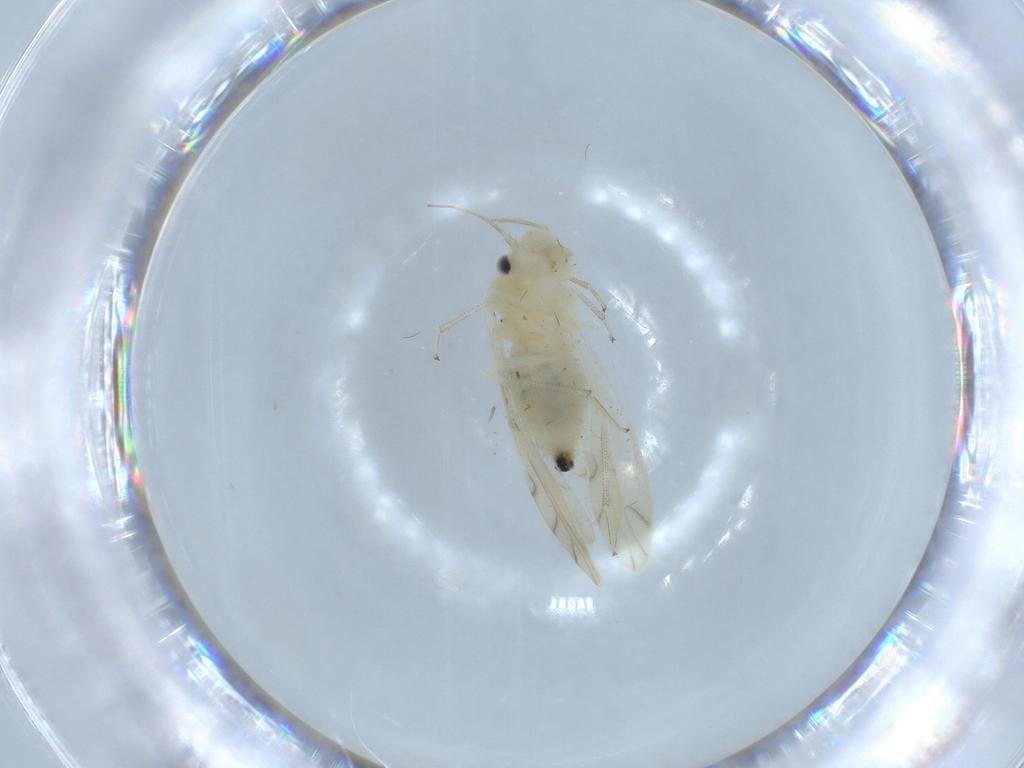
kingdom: Animalia
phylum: Arthropoda
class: Insecta
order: Psocodea
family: Caeciliusidae
